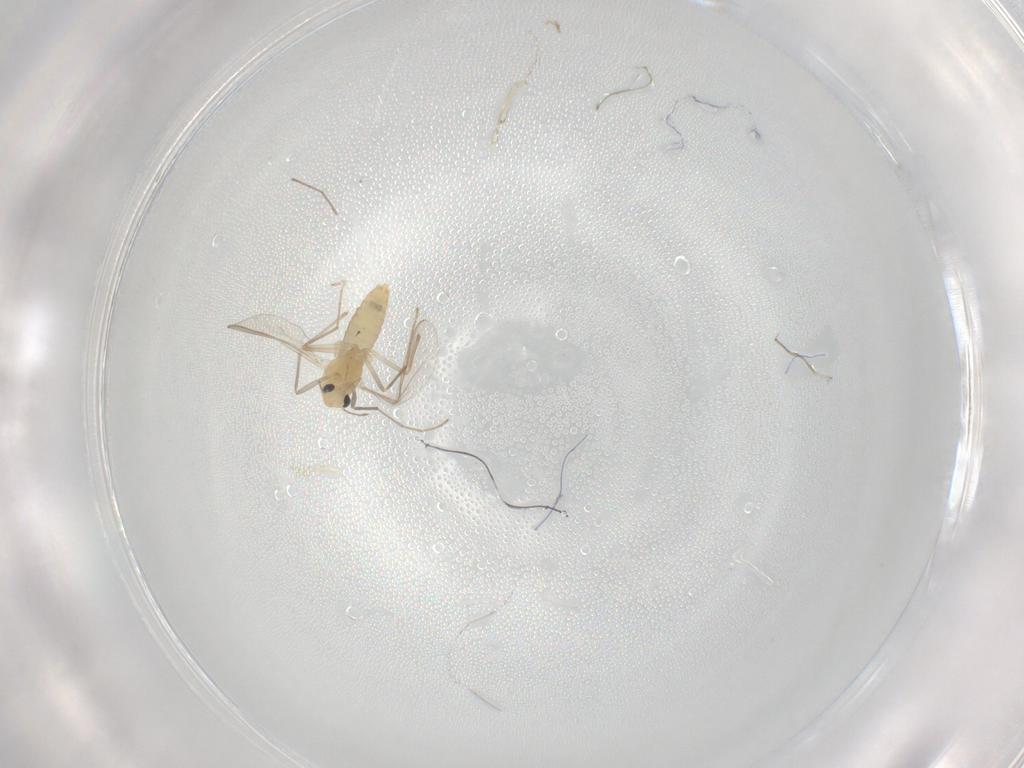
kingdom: Animalia
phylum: Arthropoda
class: Insecta
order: Diptera
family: Chironomidae
